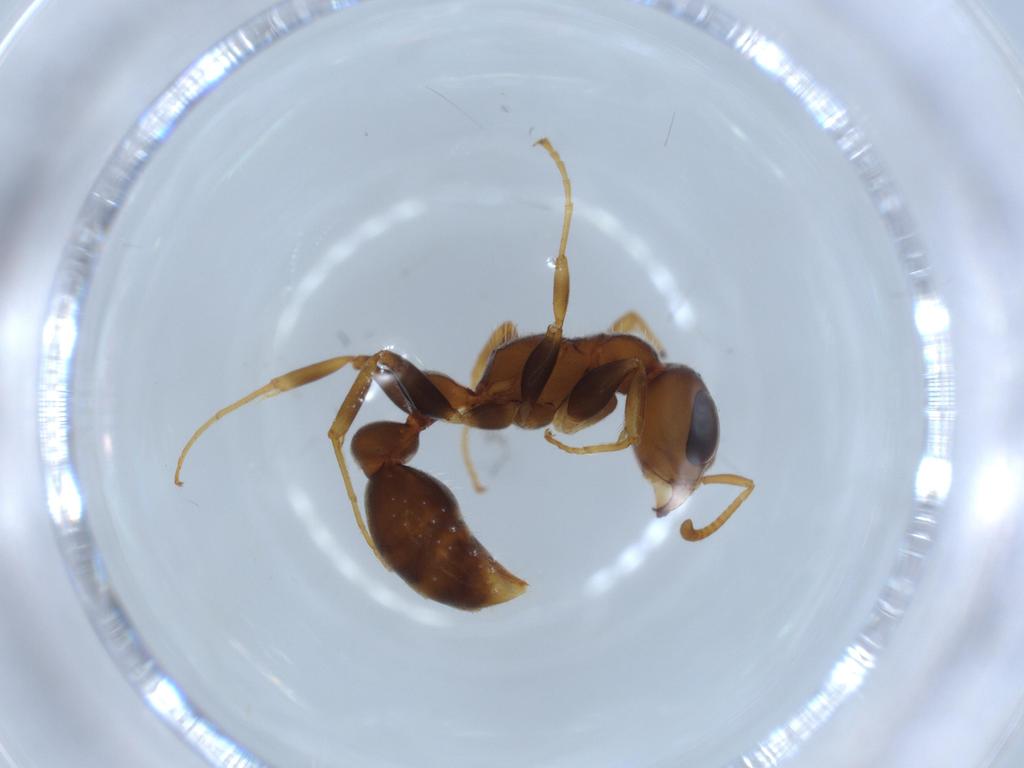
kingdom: Animalia
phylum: Arthropoda
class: Insecta
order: Hymenoptera
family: Formicidae
